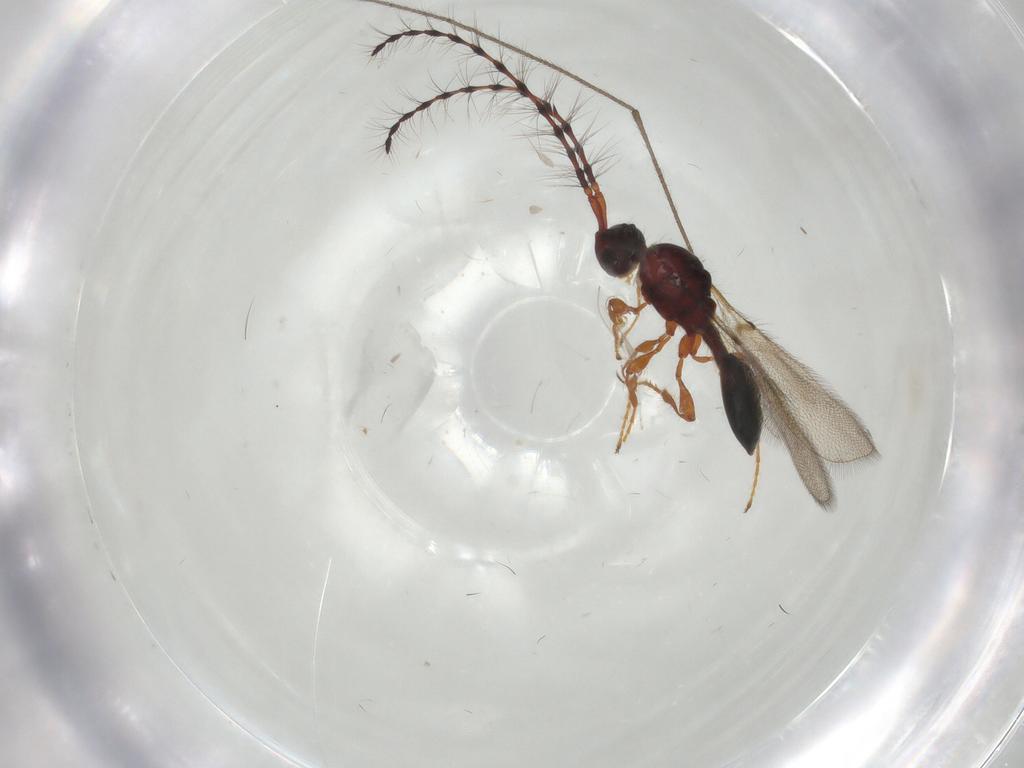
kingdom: Animalia
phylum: Arthropoda
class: Insecta
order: Hymenoptera
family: Diapriidae
